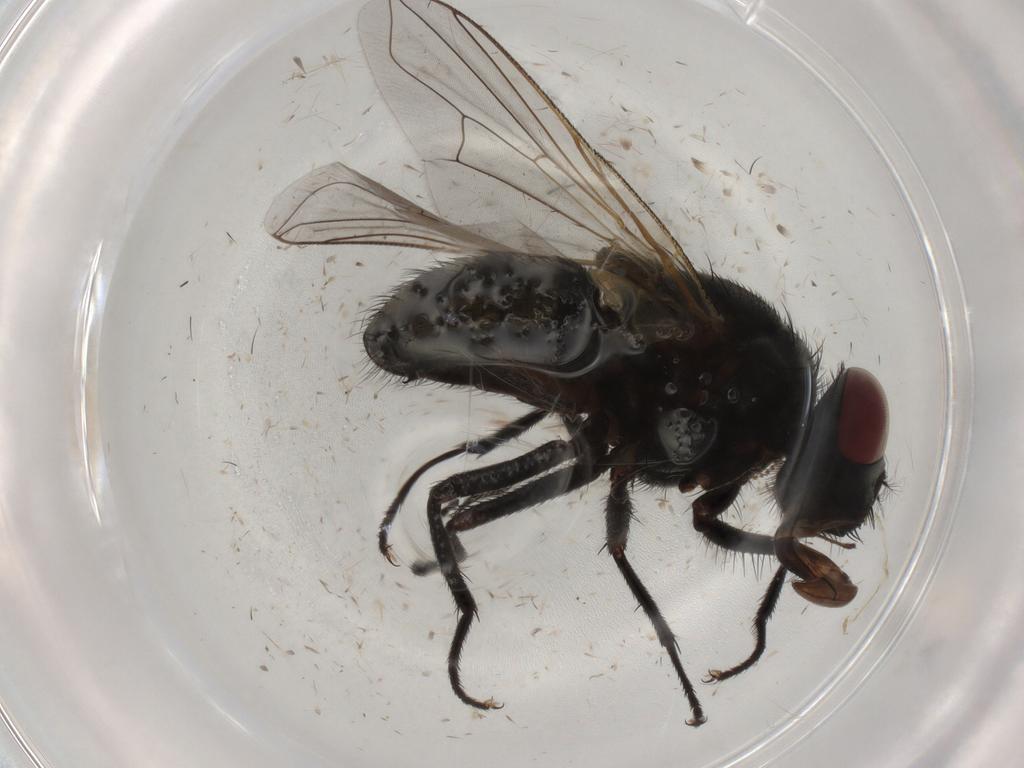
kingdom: Animalia
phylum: Arthropoda
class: Insecta
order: Diptera
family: Muscidae
